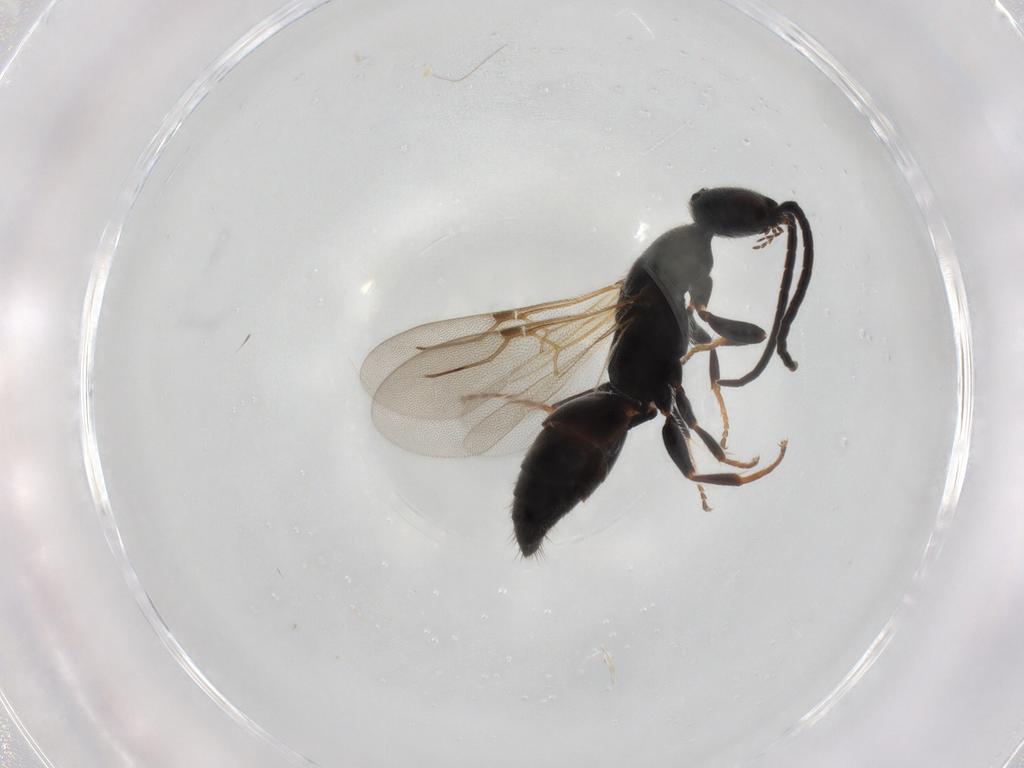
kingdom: Animalia
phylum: Arthropoda
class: Insecta
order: Hymenoptera
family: Bethylidae
